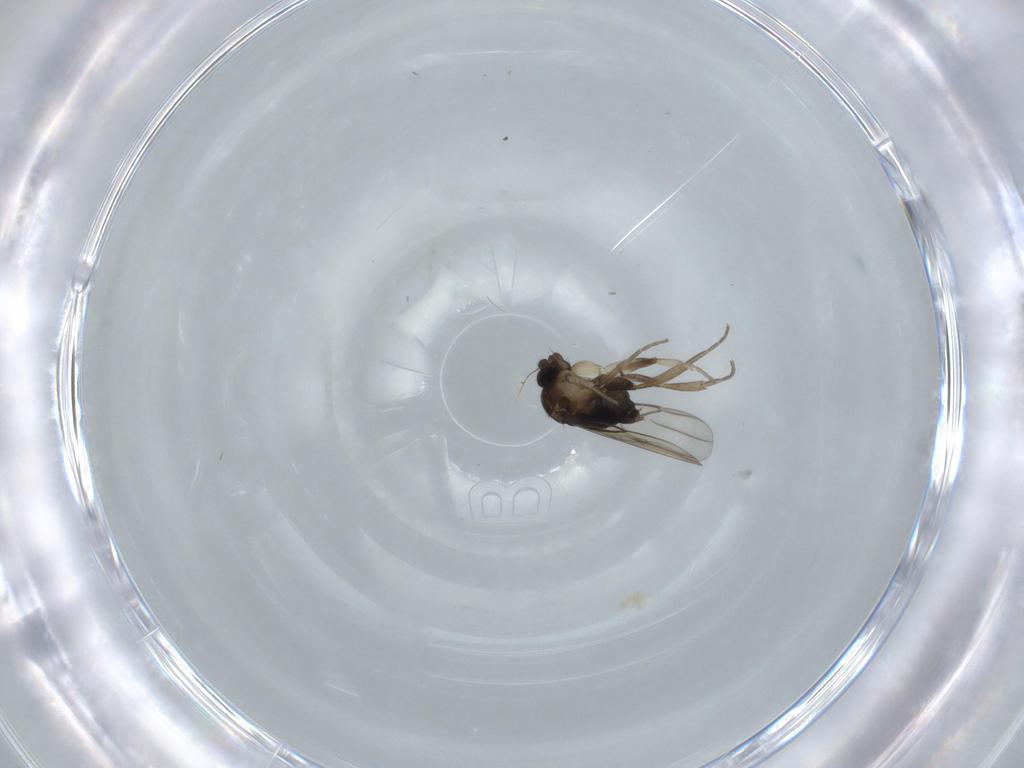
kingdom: Animalia
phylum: Arthropoda
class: Insecta
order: Diptera
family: Phoridae
